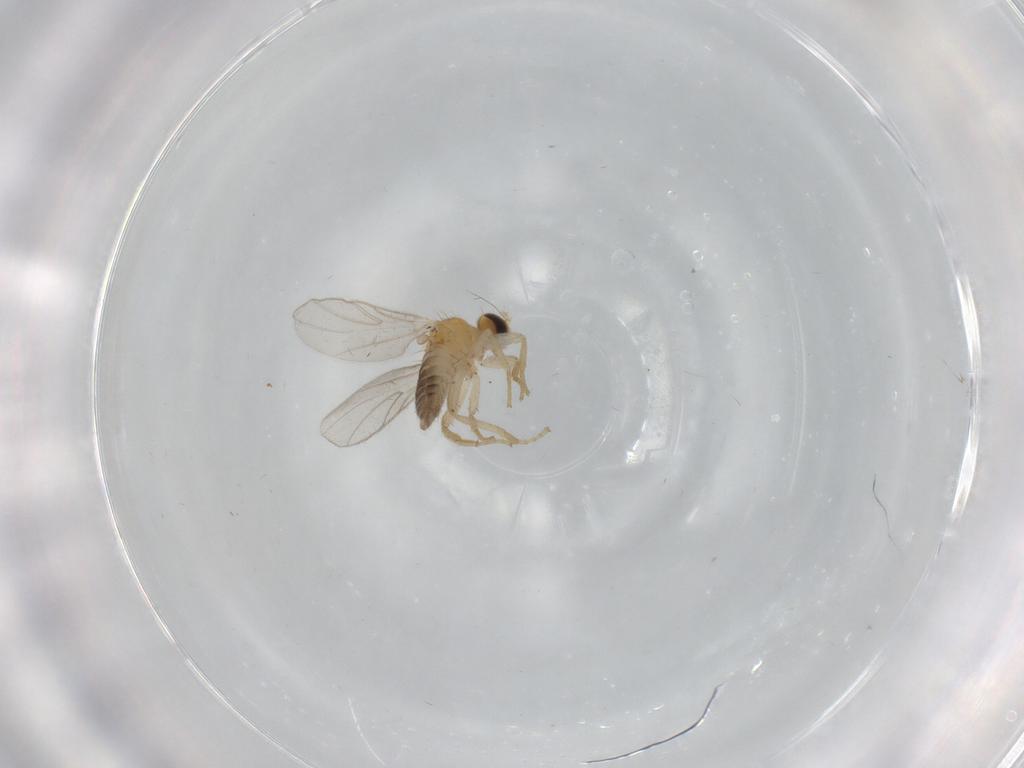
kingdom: Animalia
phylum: Arthropoda
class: Insecta
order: Diptera
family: Hybotidae
